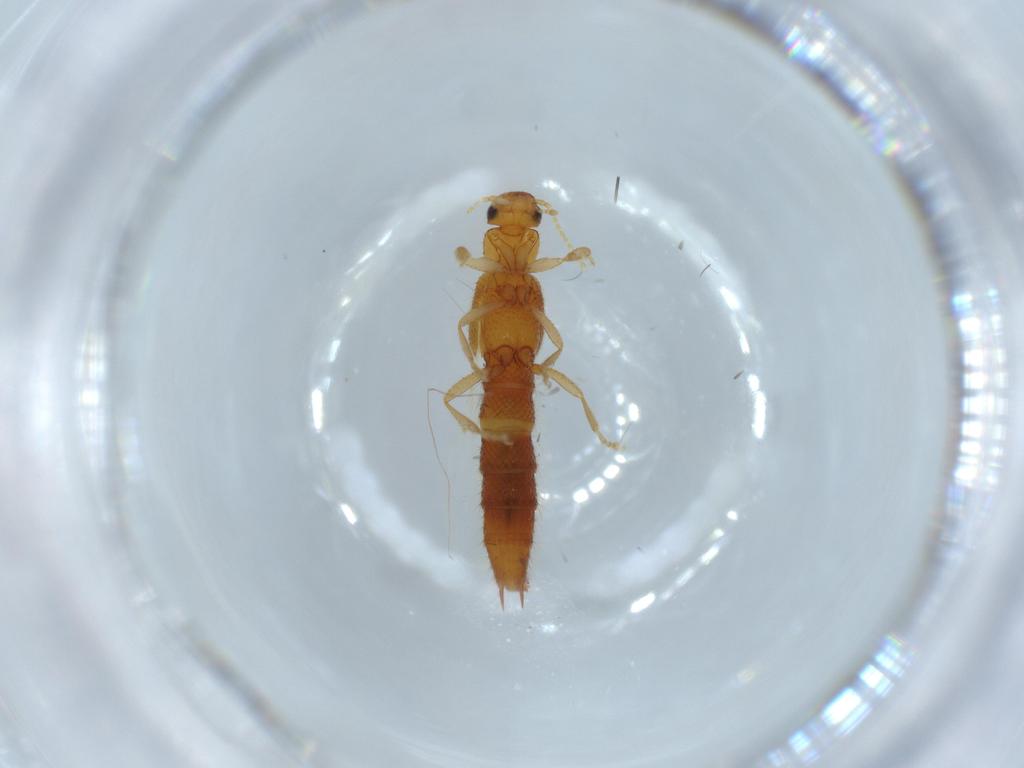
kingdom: Animalia
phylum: Arthropoda
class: Insecta
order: Coleoptera
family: Staphylinidae
